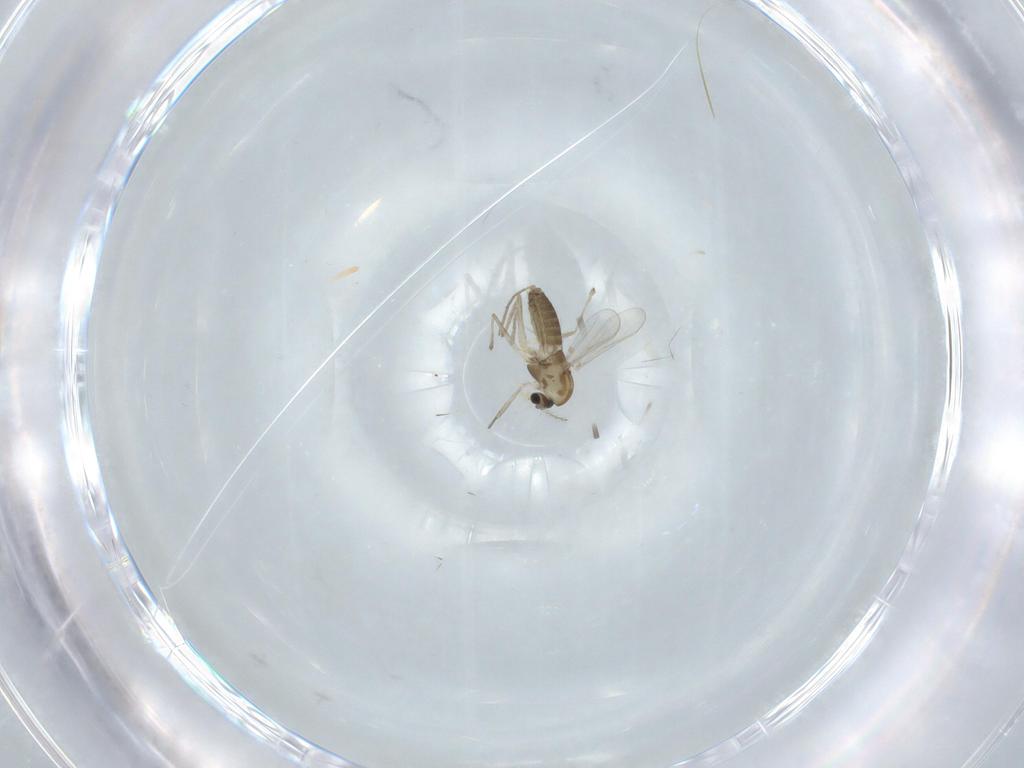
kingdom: Animalia
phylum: Arthropoda
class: Insecta
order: Diptera
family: Chironomidae
